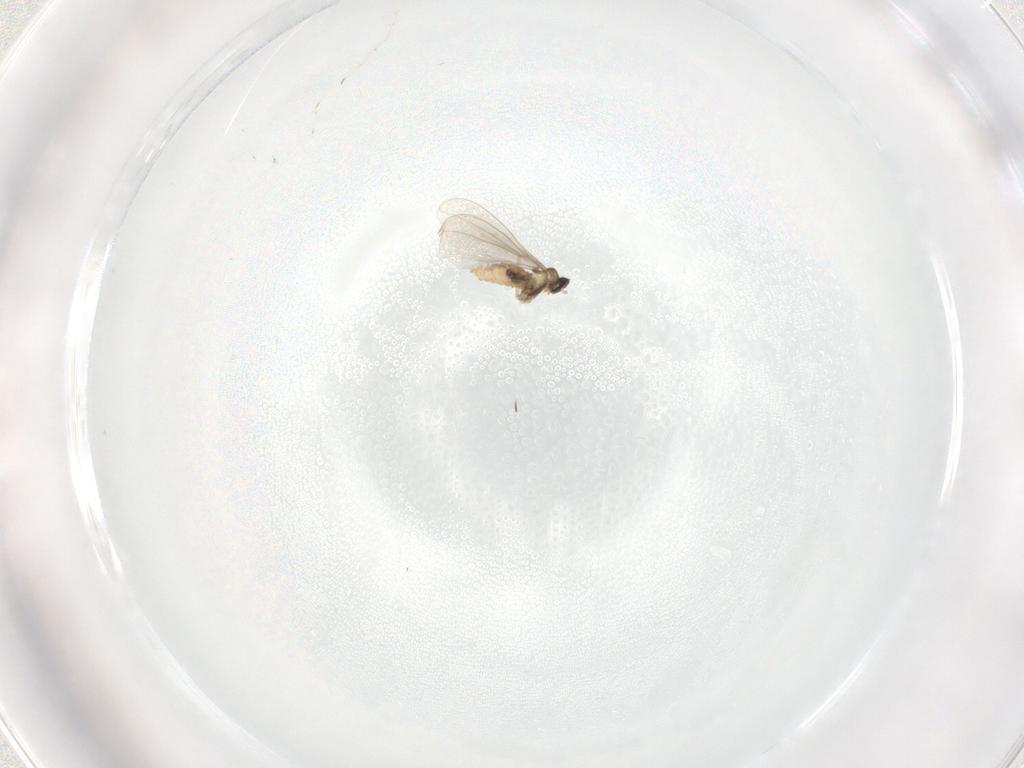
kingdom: Animalia
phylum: Arthropoda
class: Insecta
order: Diptera
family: Cecidomyiidae
